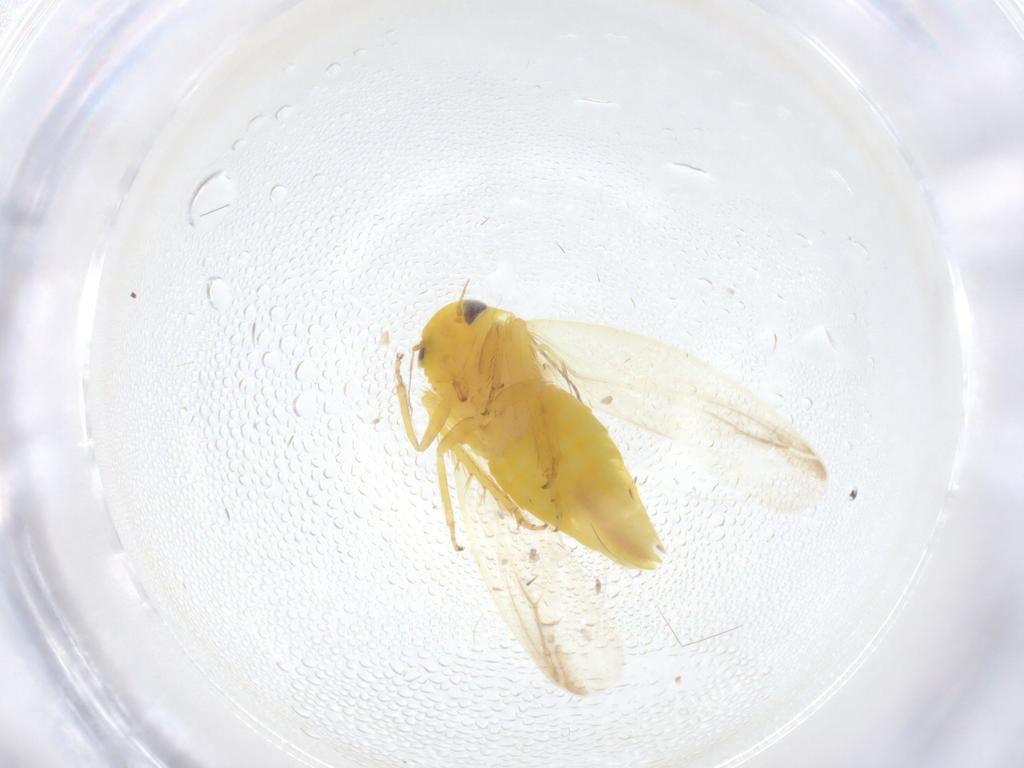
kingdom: Animalia
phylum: Arthropoda
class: Insecta
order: Hemiptera
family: Cicadellidae
